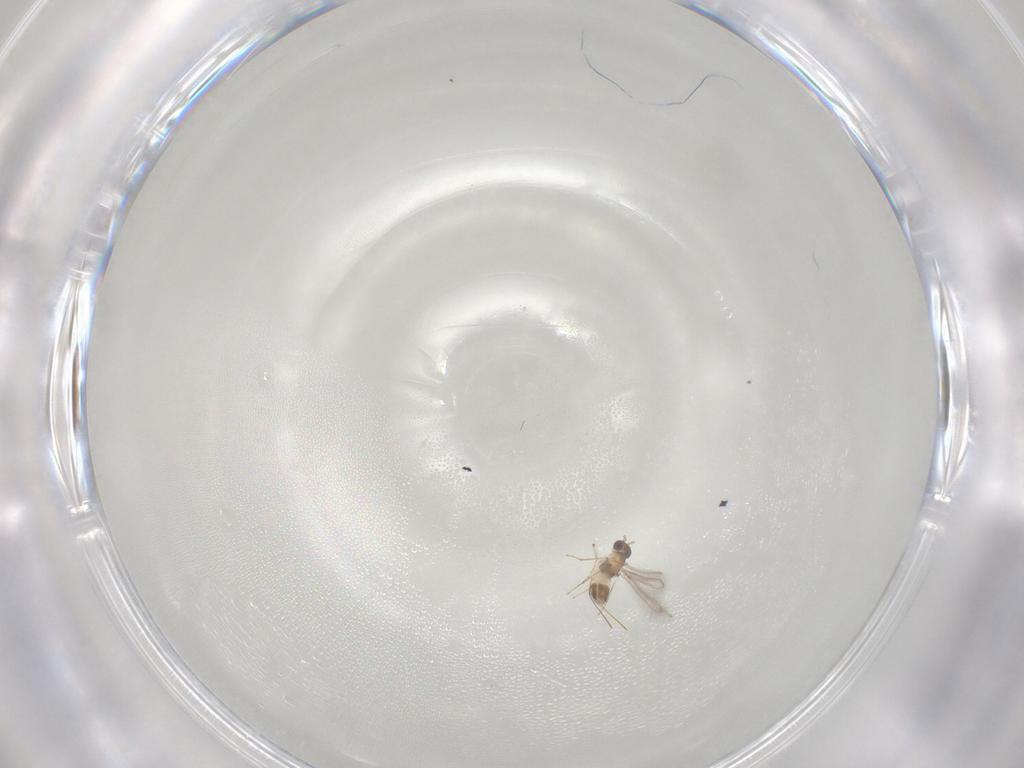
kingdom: Animalia
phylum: Arthropoda
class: Insecta
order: Hymenoptera
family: Mymaridae
